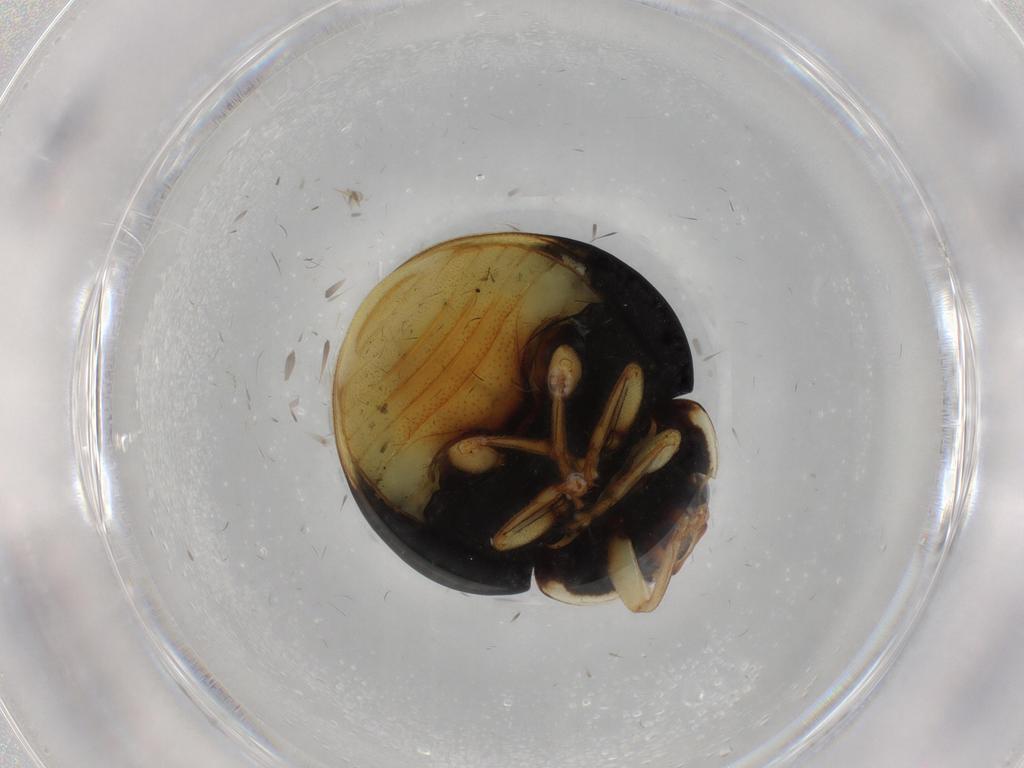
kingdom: Animalia
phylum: Arthropoda
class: Insecta
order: Coleoptera
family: Coccinellidae
